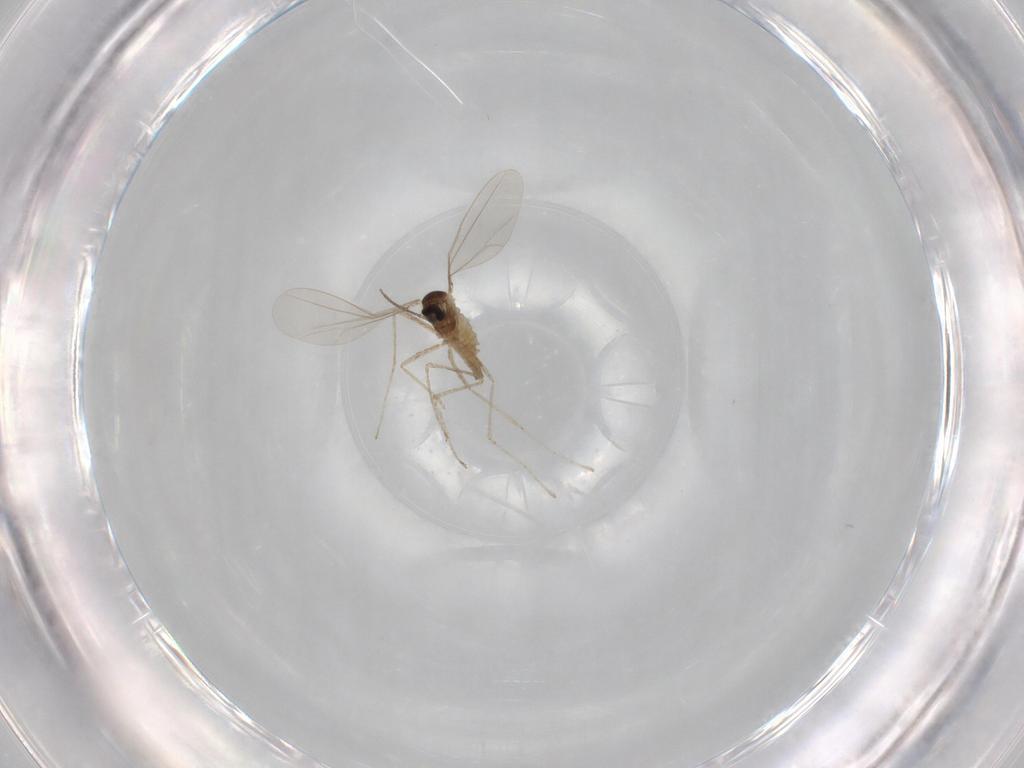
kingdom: Animalia
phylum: Arthropoda
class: Insecta
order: Diptera
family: Cecidomyiidae
